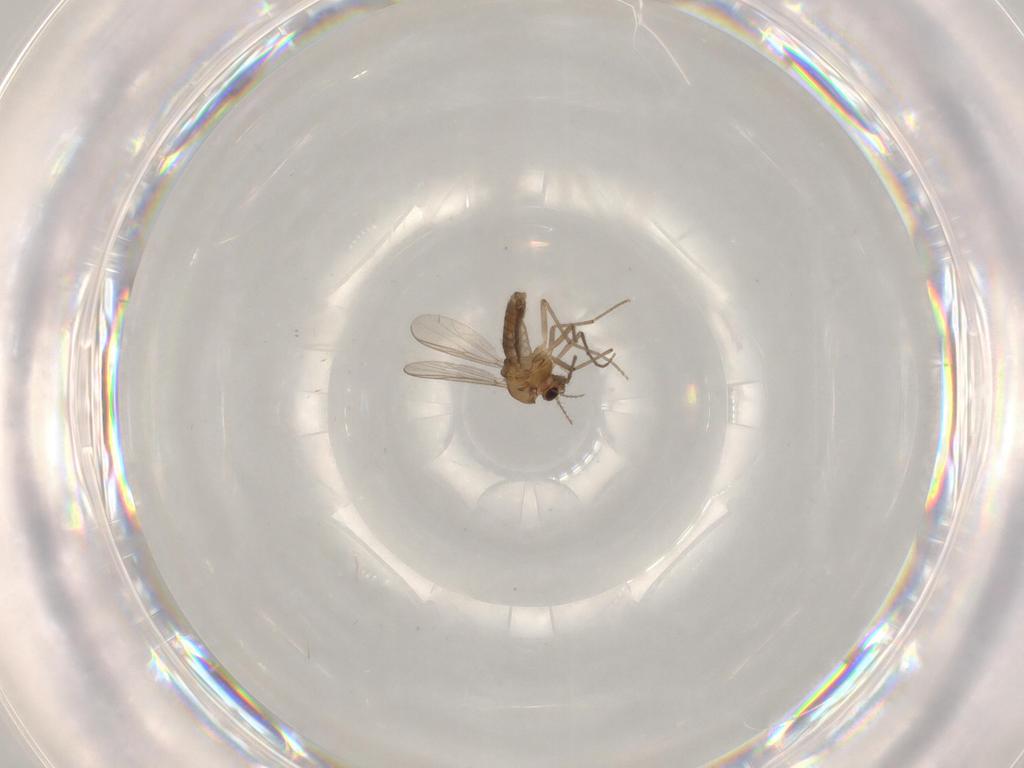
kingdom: Animalia
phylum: Arthropoda
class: Insecta
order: Diptera
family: Chironomidae
